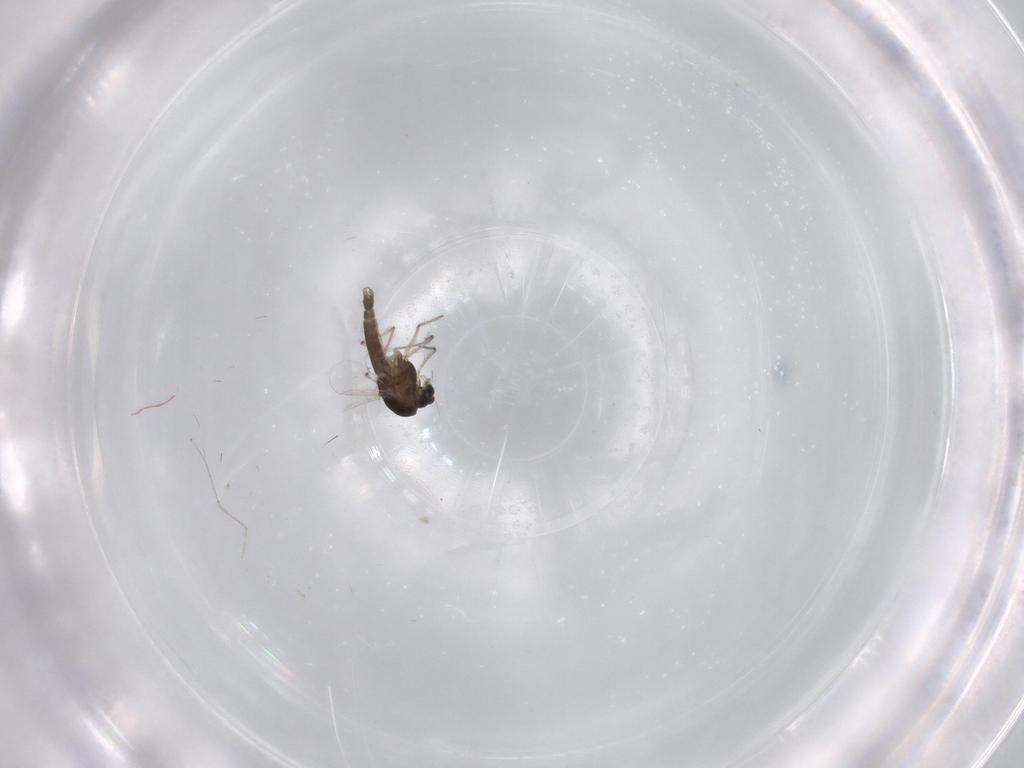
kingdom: Animalia
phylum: Arthropoda
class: Insecta
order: Diptera
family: Chironomidae
